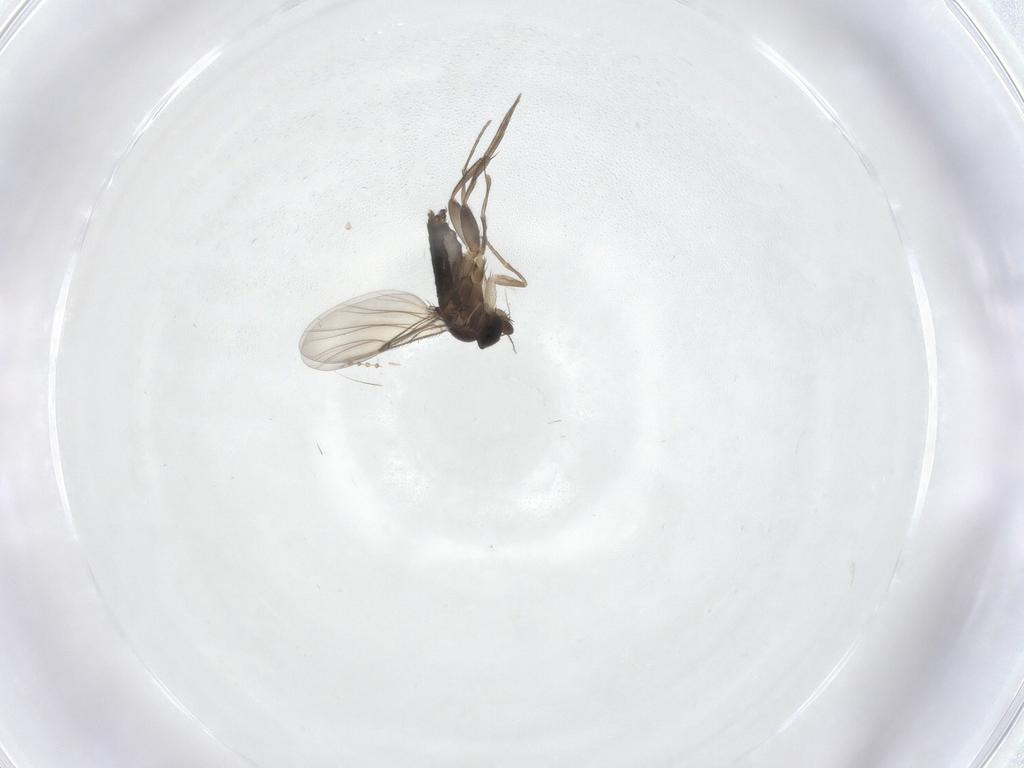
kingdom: Animalia
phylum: Arthropoda
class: Insecta
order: Diptera
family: Phoridae
